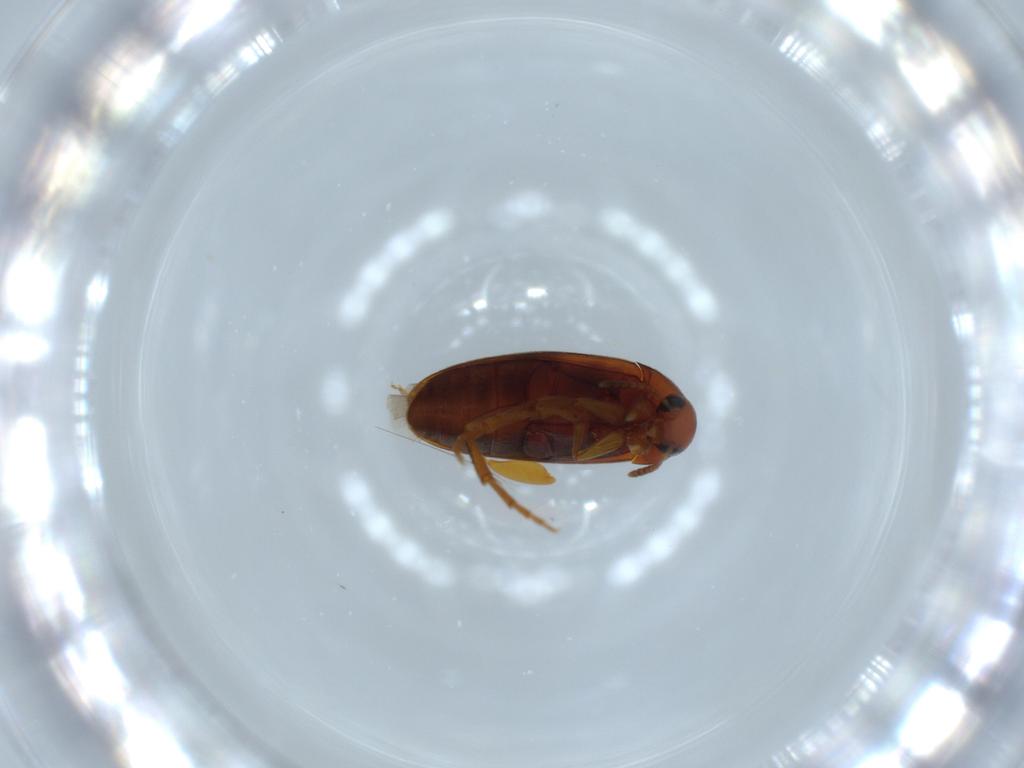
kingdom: Animalia
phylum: Arthropoda
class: Insecta
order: Coleoptera
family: Scraptiidae
